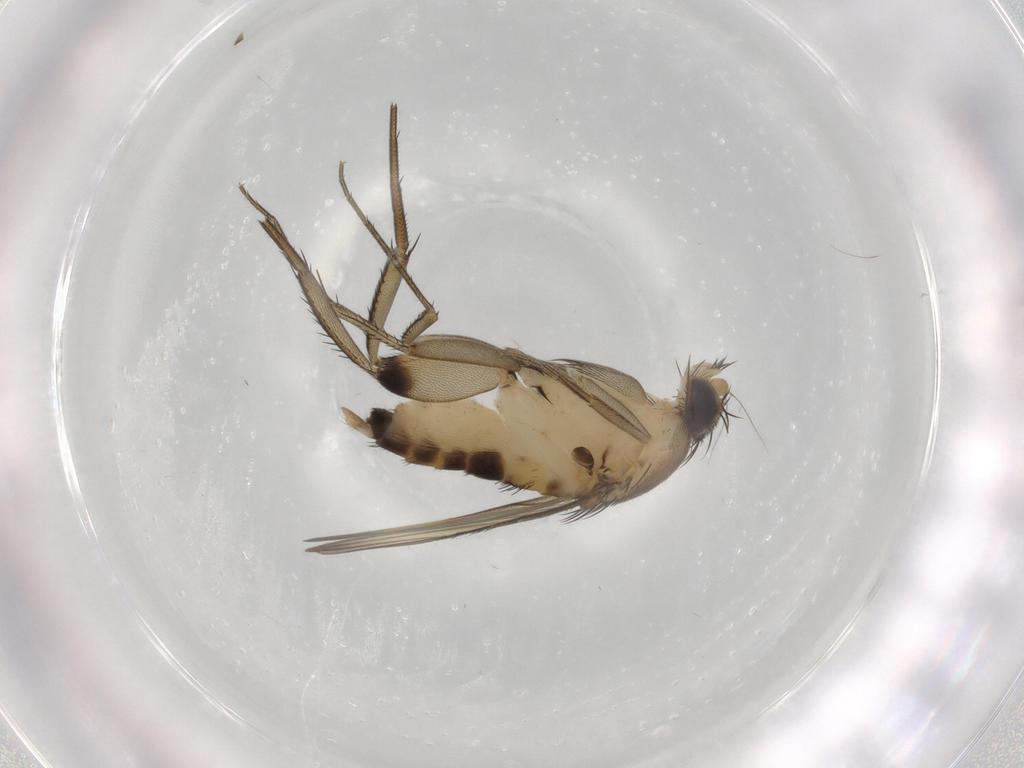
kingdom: Animalia
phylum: Arthropoda
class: Insecta
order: Diptera
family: Phoridae
